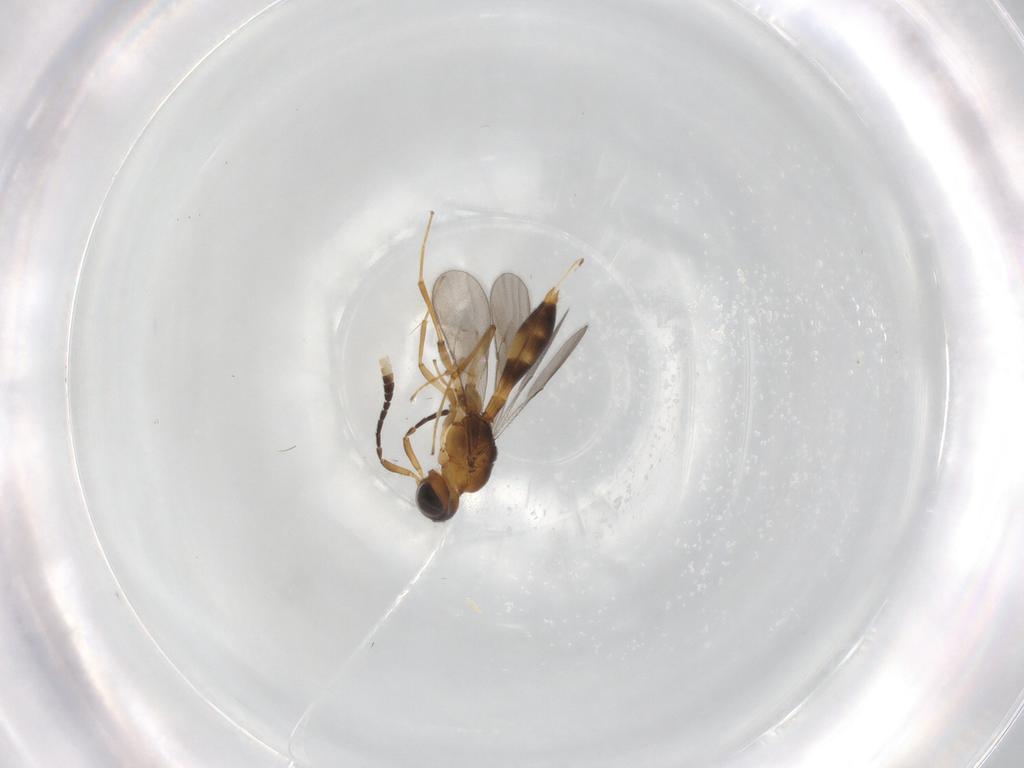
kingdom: Animalia
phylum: Arthropoda
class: Insecta
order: Hymenoptera
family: Scelionidae
